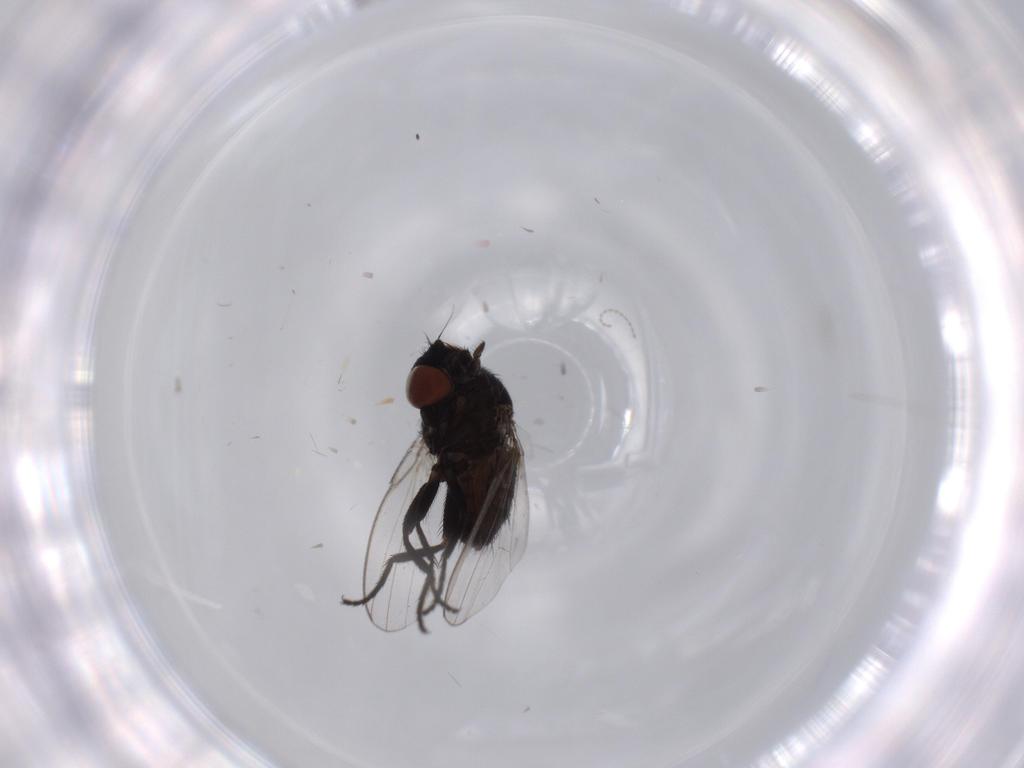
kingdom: Animalia
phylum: Arthropoda
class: Insecta
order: Diptera
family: Milichiidae
